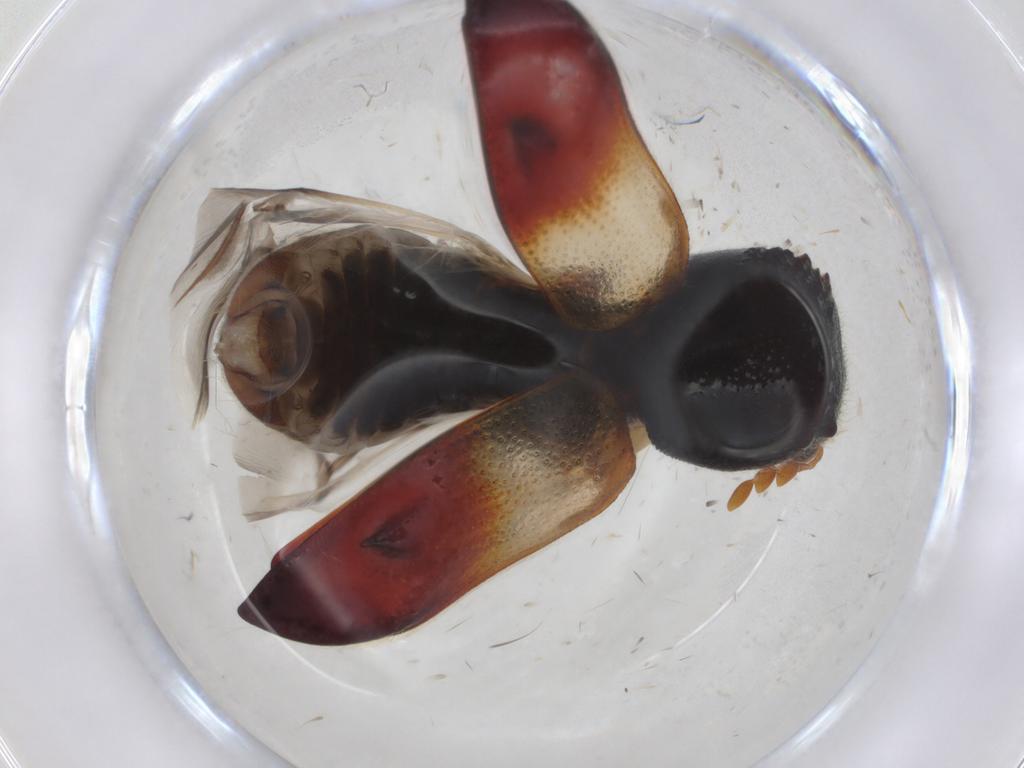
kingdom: Animalia
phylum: Arthropoda
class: Insecta
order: Coleoptera
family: Bostrichidae
